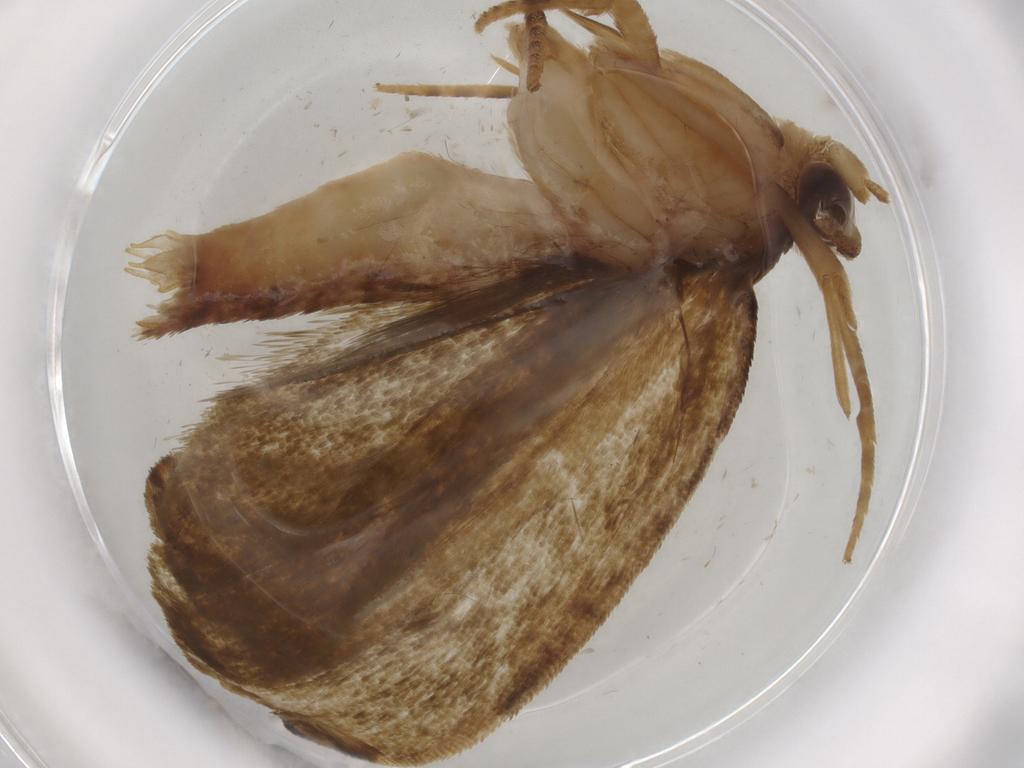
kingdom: Animalia
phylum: Arthropoda
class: Insecta
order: Lepidoptera
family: Geometridae
